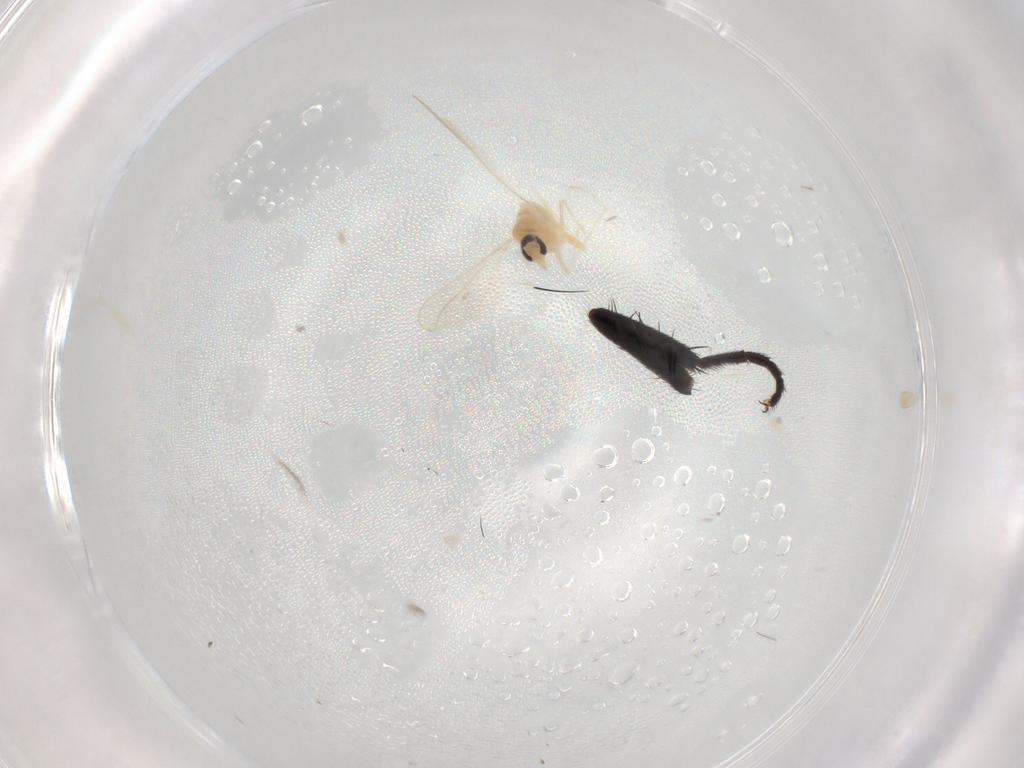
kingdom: Animalia
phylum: Arthropoda
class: Insecta
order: Diptera
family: Cecidomyiidae
